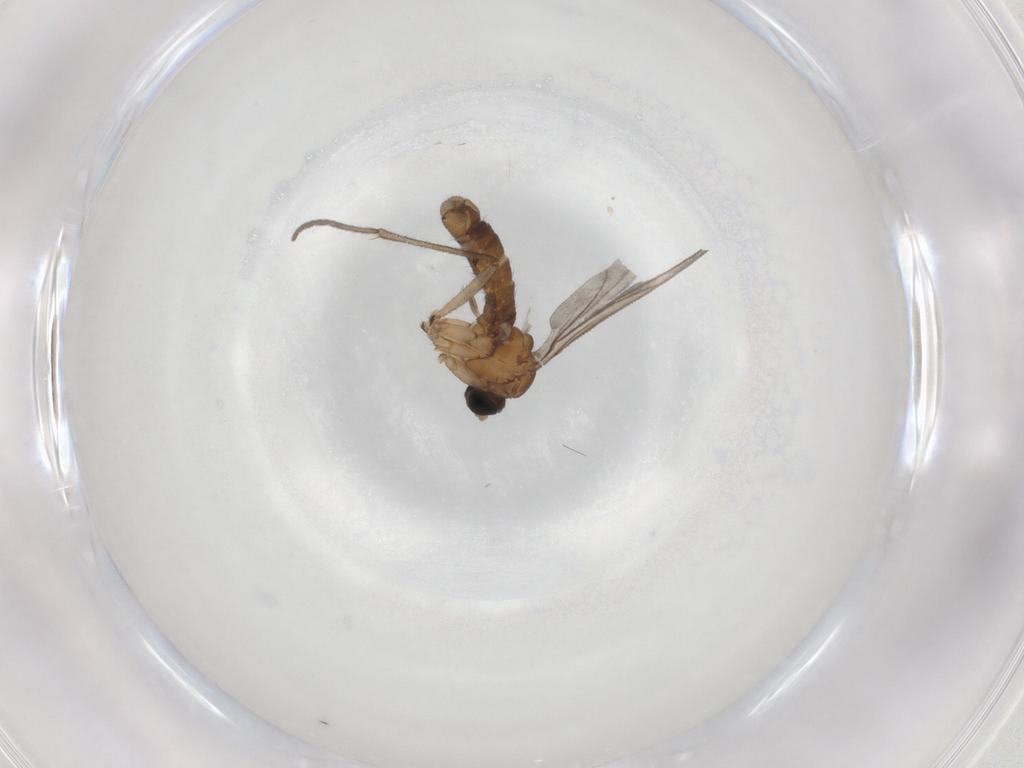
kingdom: Animalia
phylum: Arthropoda
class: Insecta
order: Diptera
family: Sciaridae
